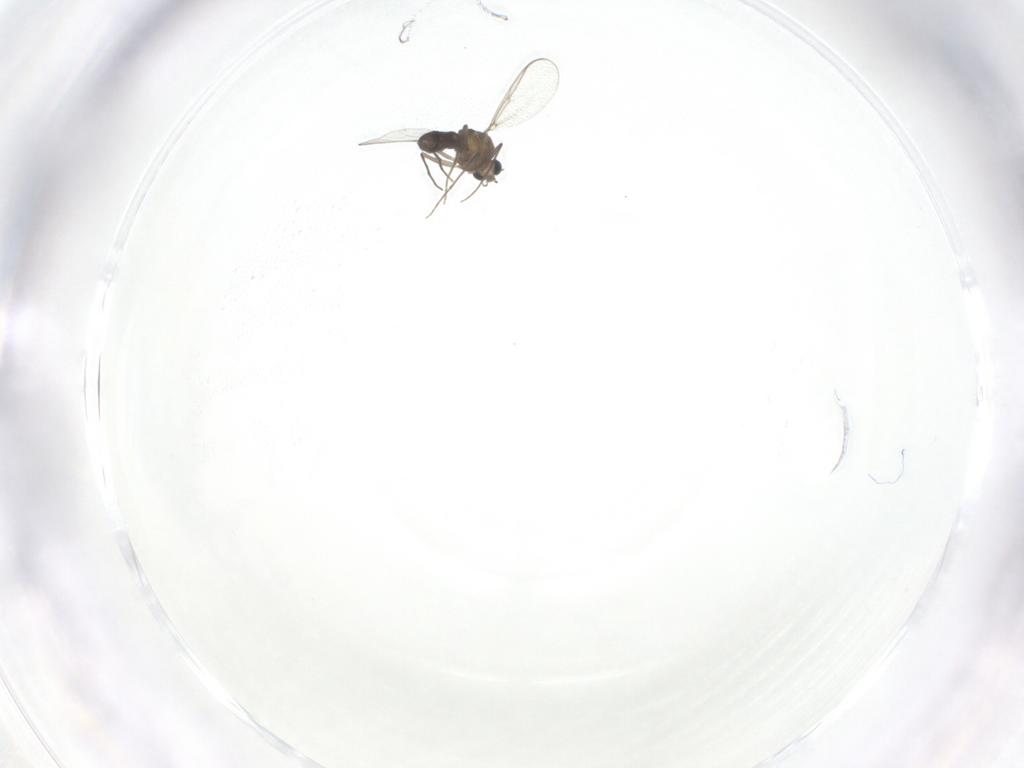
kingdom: Animalia
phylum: Arthropoda
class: Insecta
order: Diptera
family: Chironomidae
